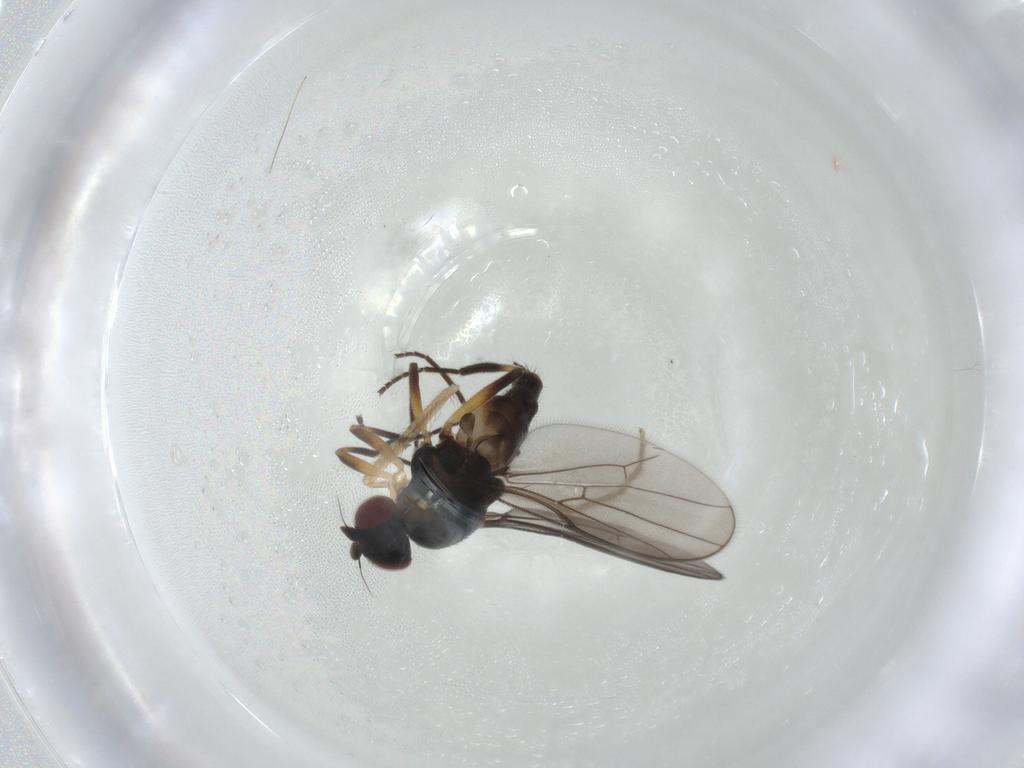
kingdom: Animalia
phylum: Arthropoda
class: Insecta
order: Diptera
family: Chloropidae
